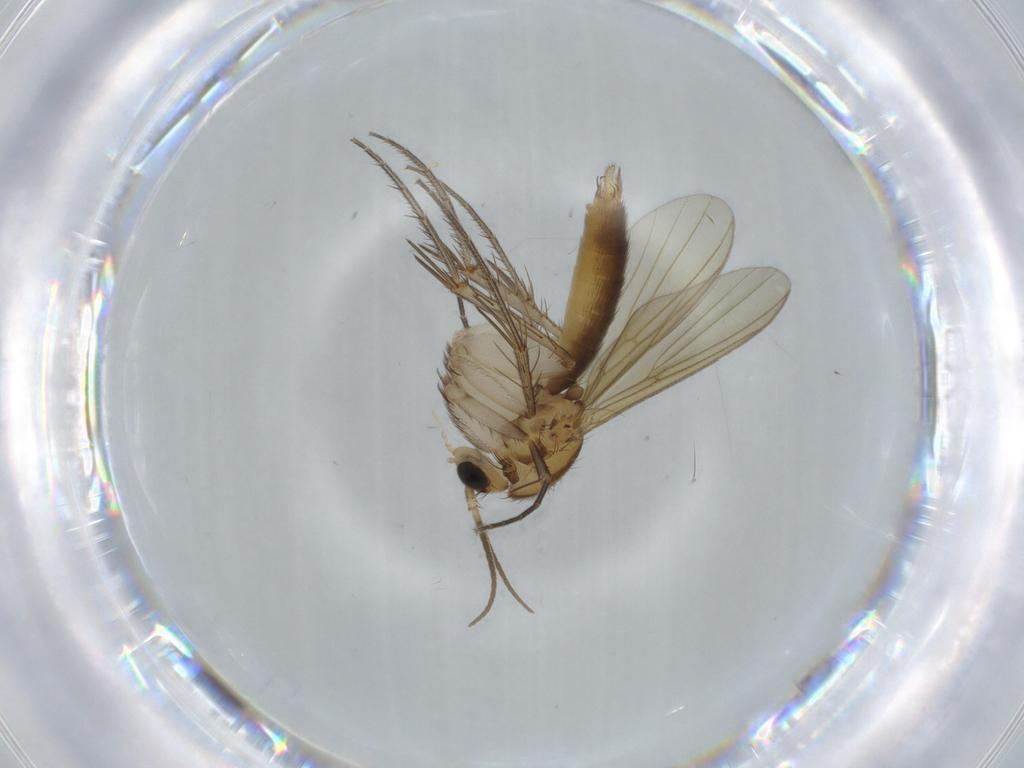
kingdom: Animalia
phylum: Arthropoda
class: Insecta
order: Diptera
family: Mycetophilidae
